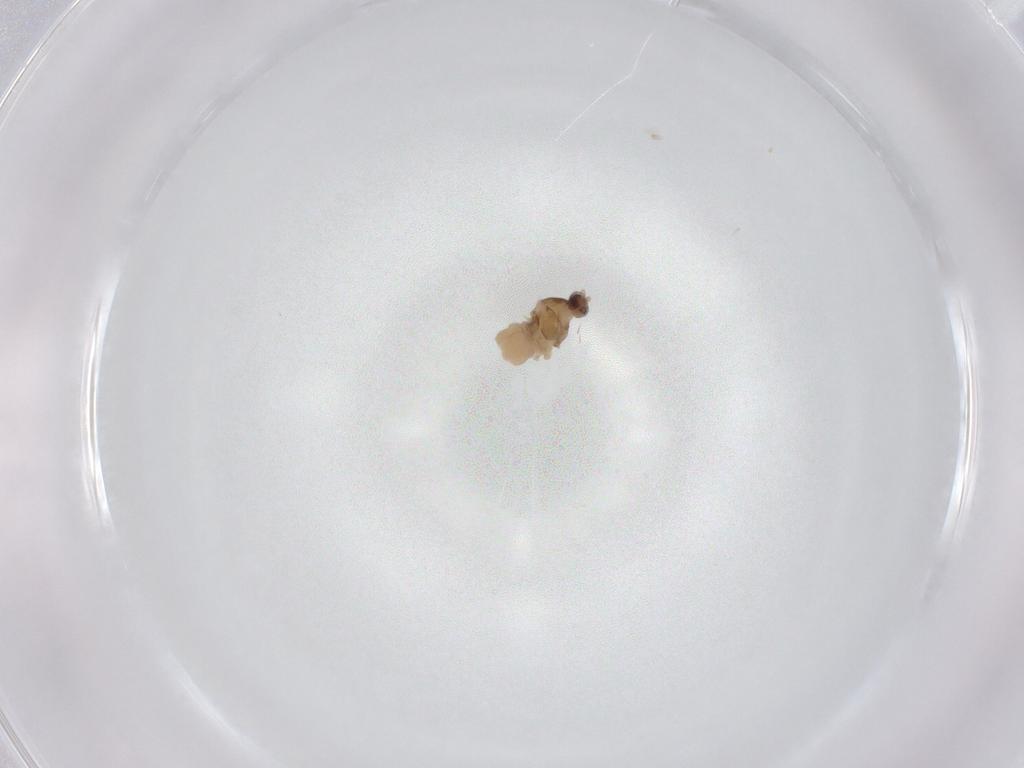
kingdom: Animalia
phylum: Arthropoda
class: Insecta
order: Diptera
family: Cecidomyiidae
